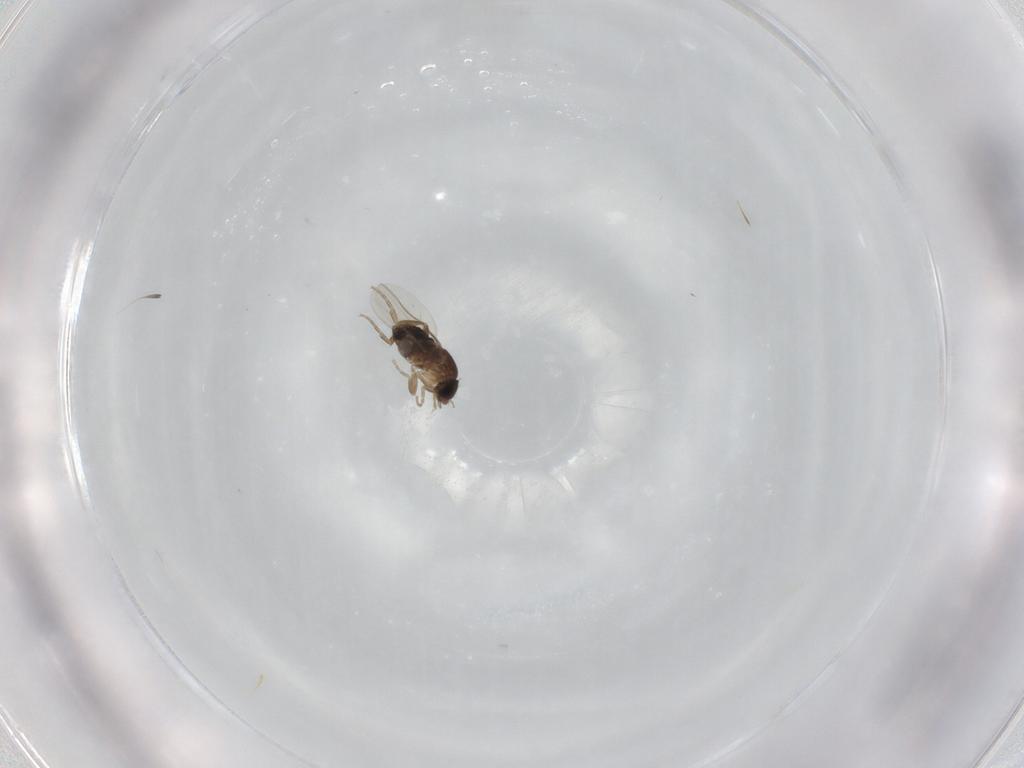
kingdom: Animalia
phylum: Arthropoda
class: Insecta
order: Diptera
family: Phoridae
